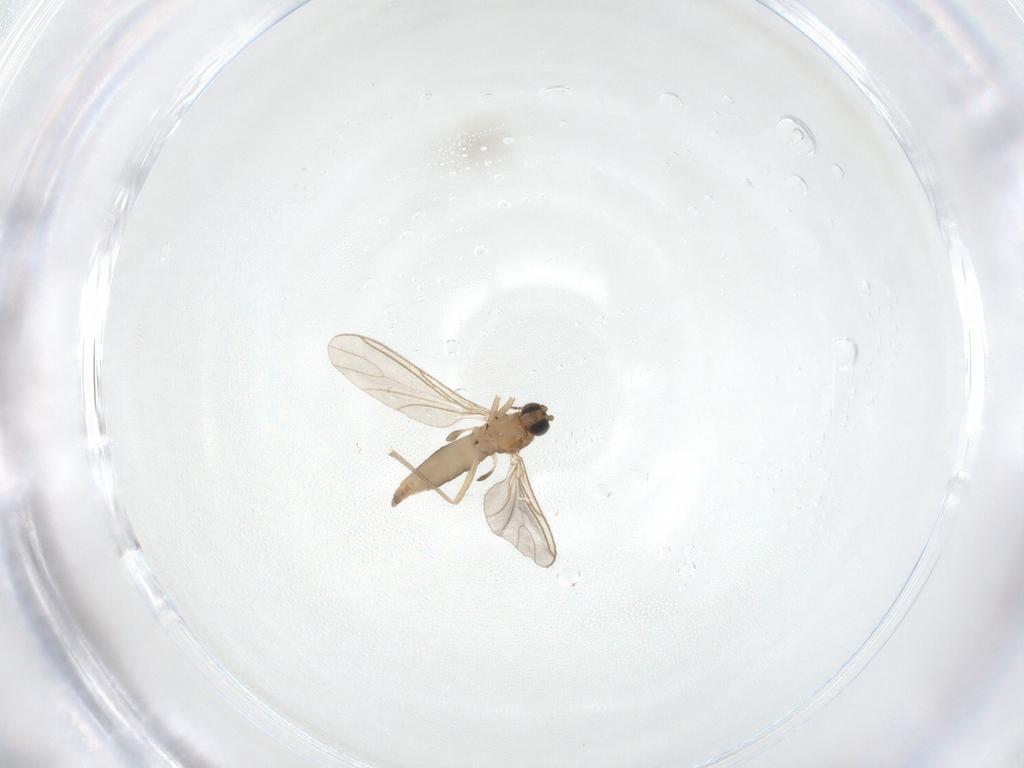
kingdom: Animalia
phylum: Arthropoda
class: Insecta
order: Diptera
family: Sciaridae
